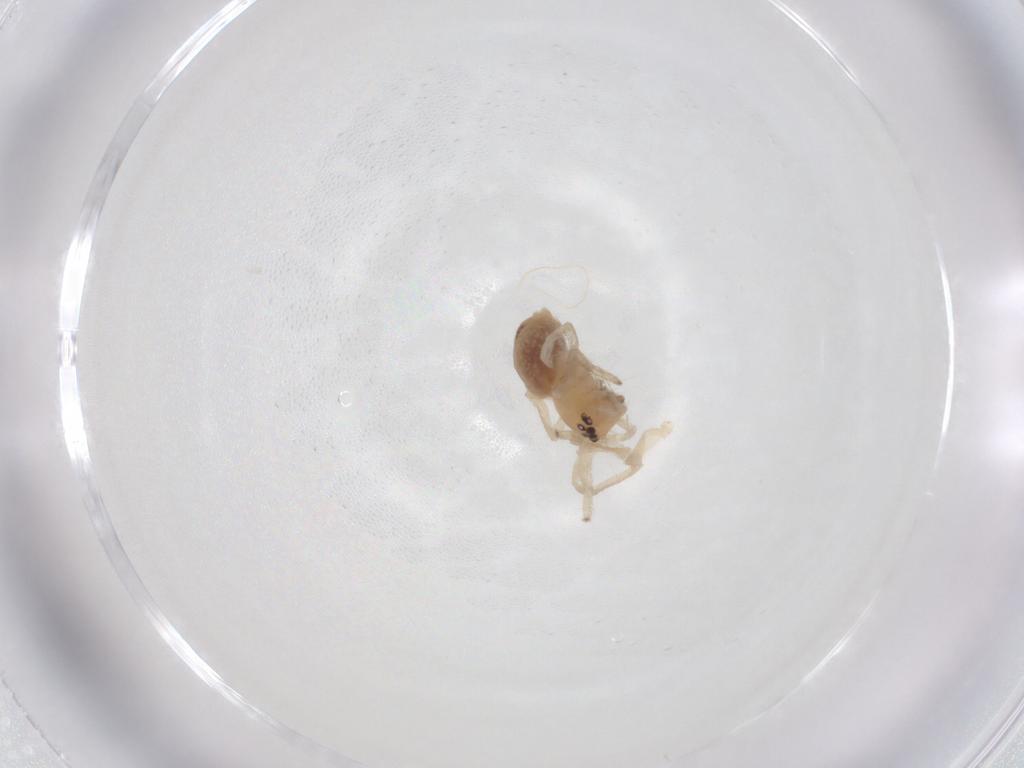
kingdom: Animalia
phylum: Arthropoda
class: Arachnida
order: Araneae
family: Cheiracanthiidae
